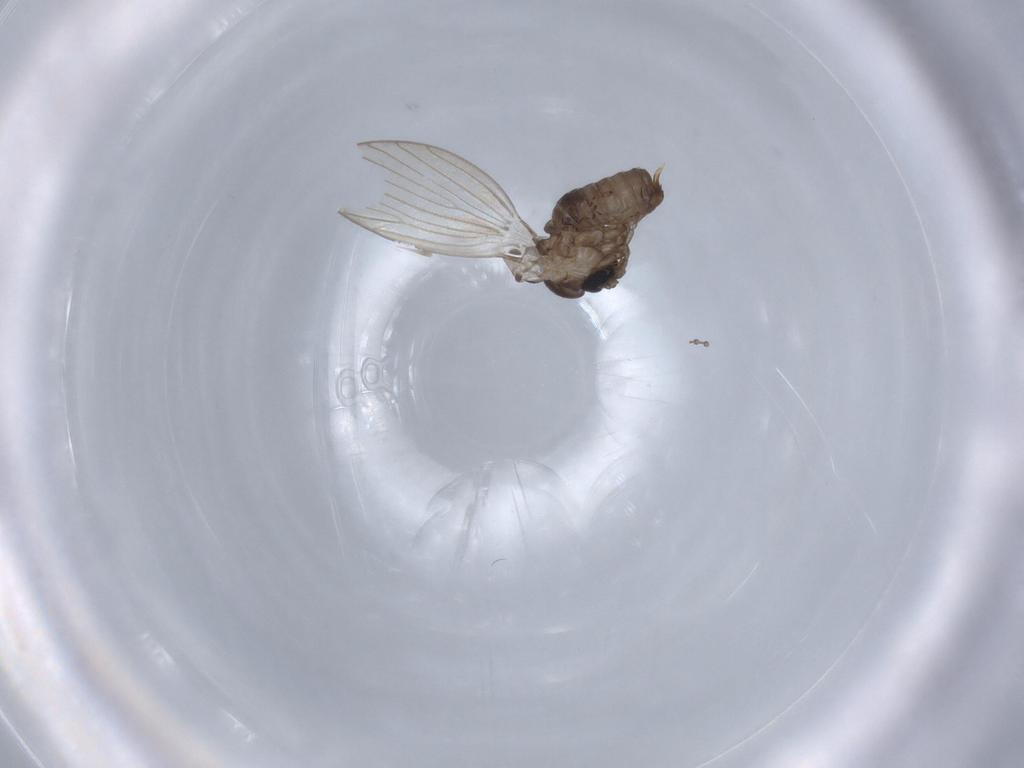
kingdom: Animalia
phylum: Arthropoda
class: Insecta
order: Diptera
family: Psychodidae
